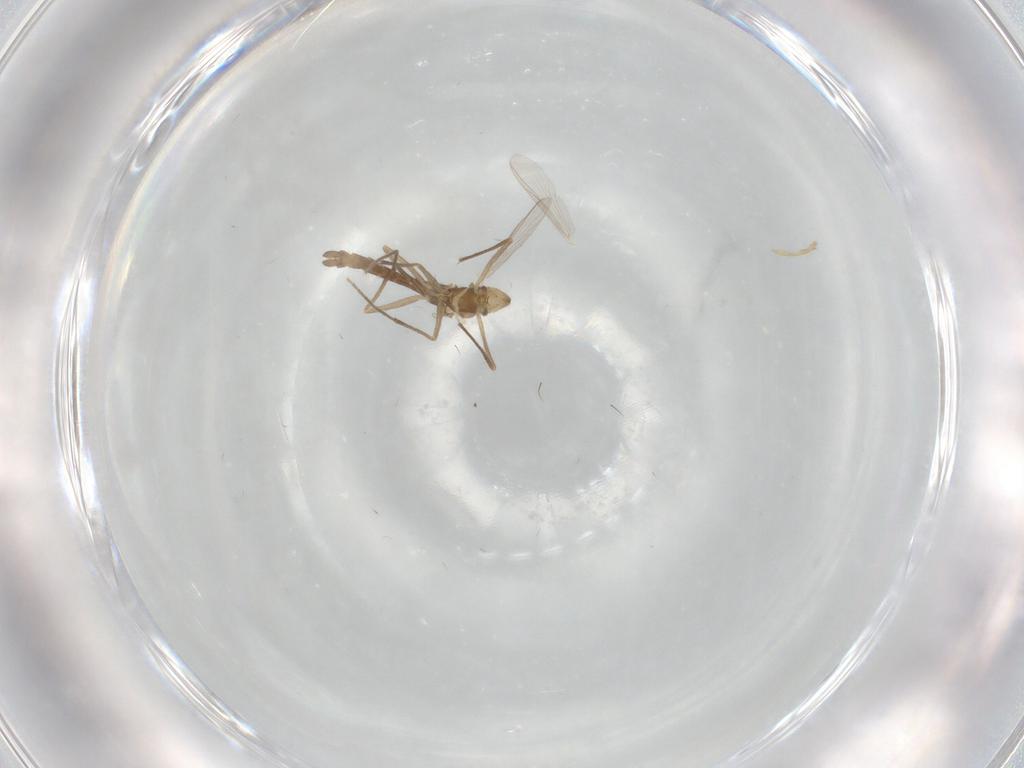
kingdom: Animalia
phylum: Arthropoda
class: Insecta
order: Diptera
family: Chironomidae
